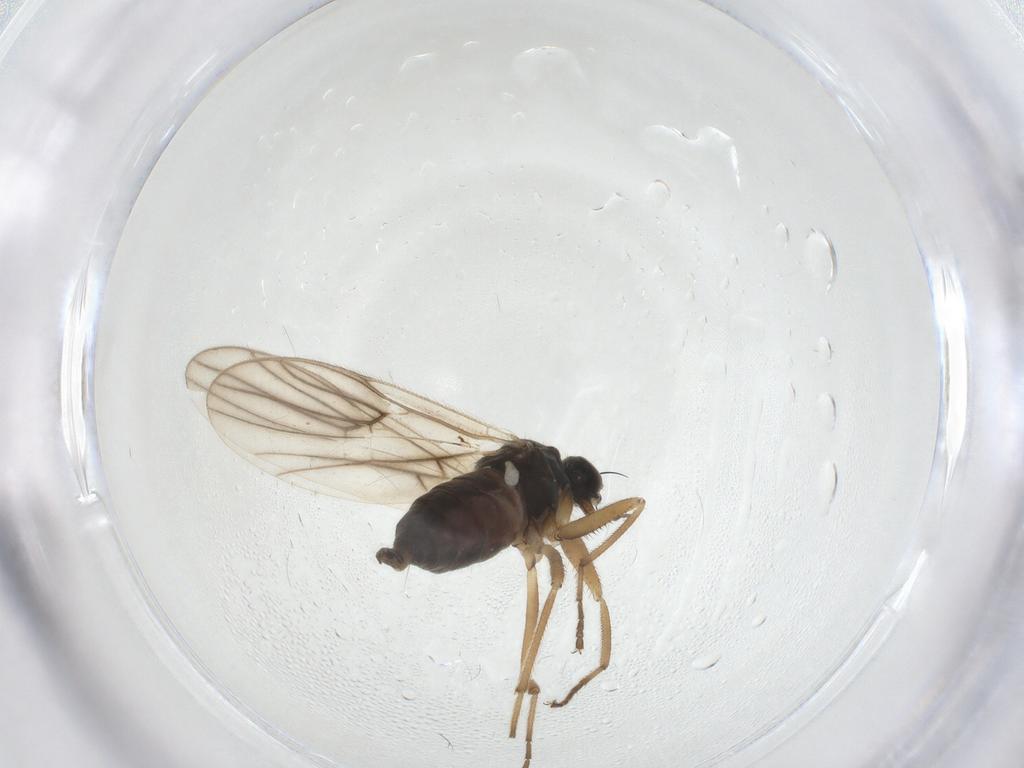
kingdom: Animalia
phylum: Arthropoda
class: Insecta
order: Diptera
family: Hybotidae
